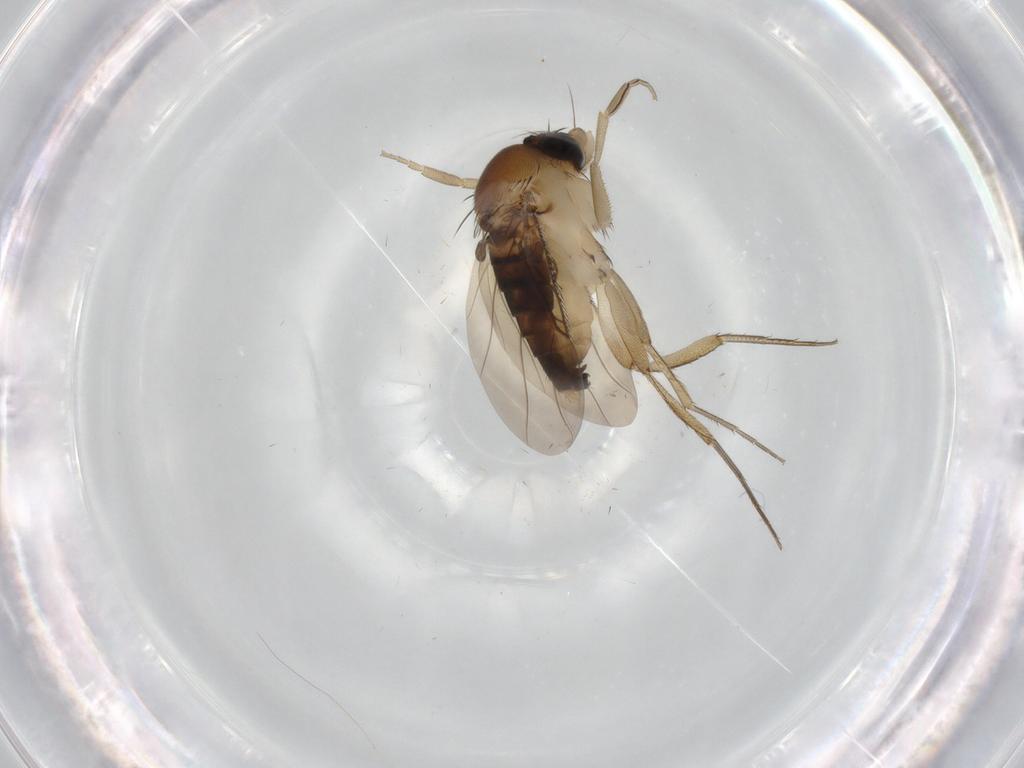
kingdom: Animalia
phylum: Arthropoda
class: Insecta
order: Diptera
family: Phoridae
